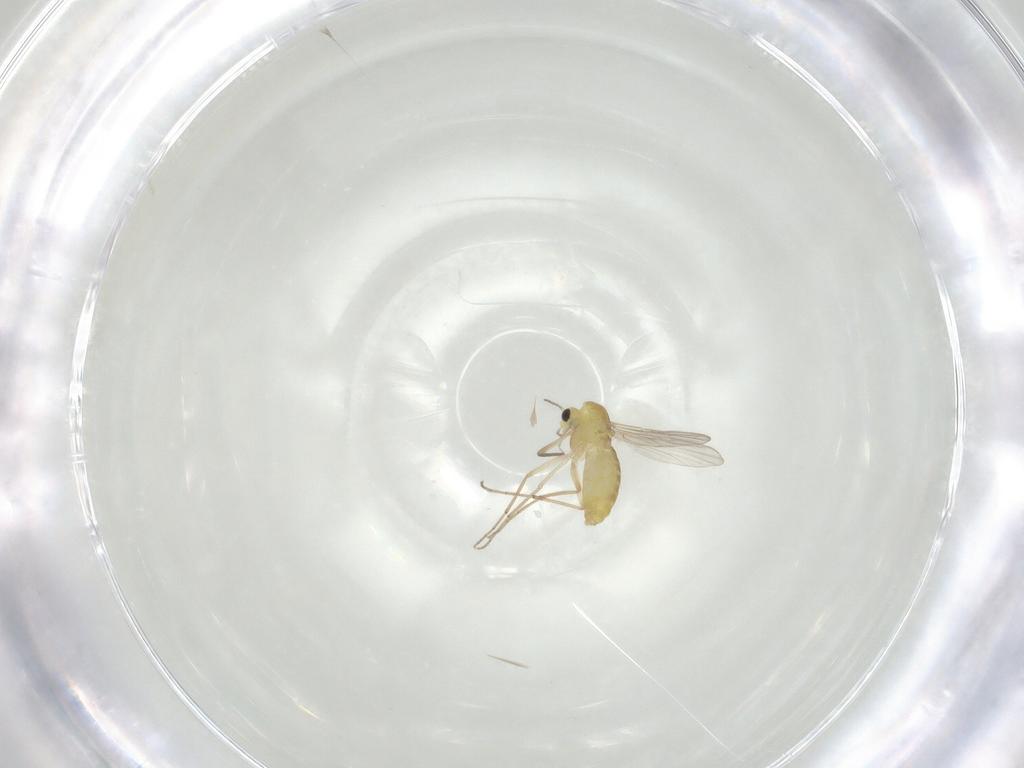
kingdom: Animalia
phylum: Arthropoda
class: Insecta
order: Diptera
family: Chironomidae
